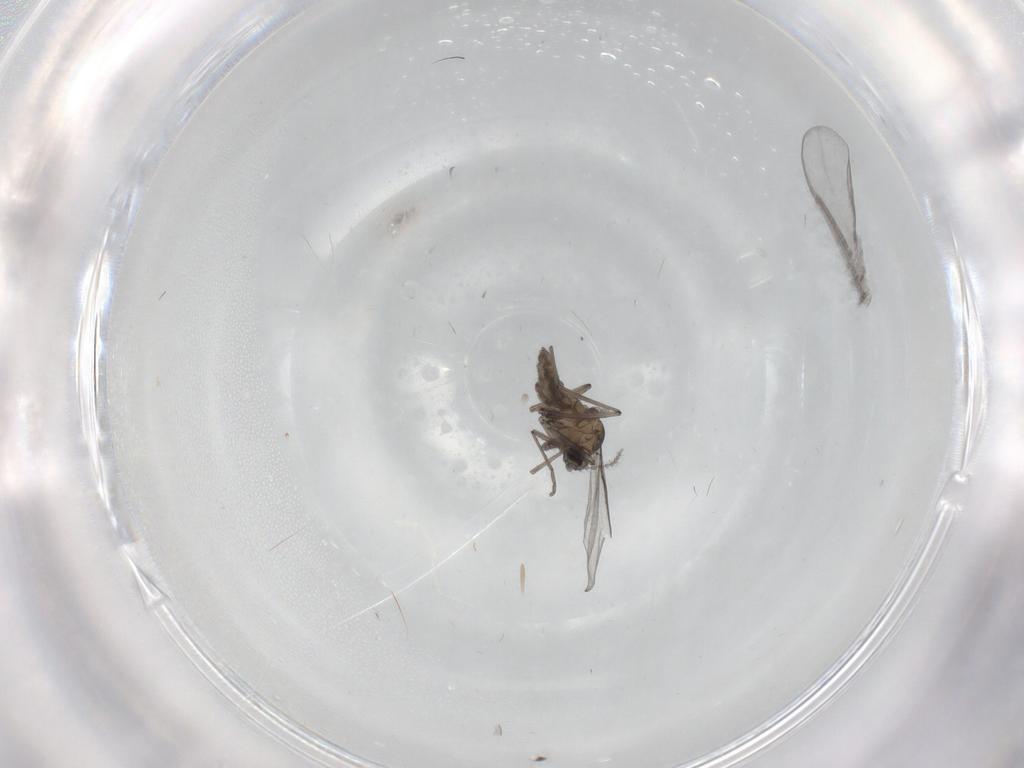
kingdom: Animalia
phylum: Arthropoda
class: Insecta
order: Diptera
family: Cecidomyiidae
